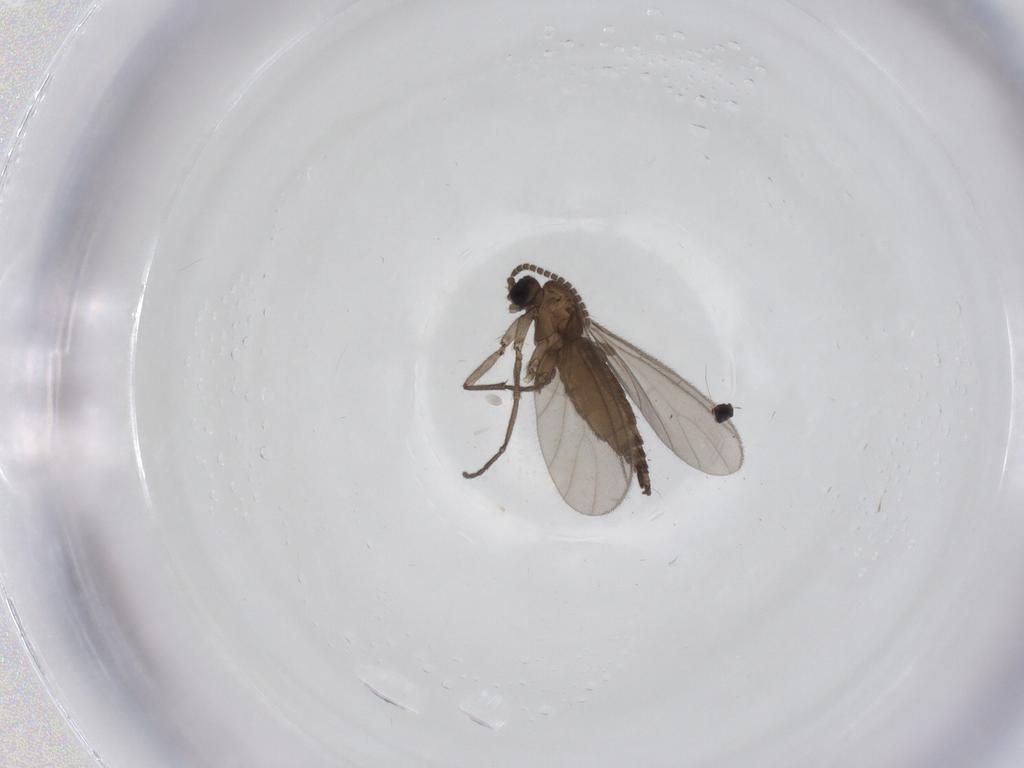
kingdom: Animalia
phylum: Arthropoda
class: Insecta
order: Diptera
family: Sciaridae
